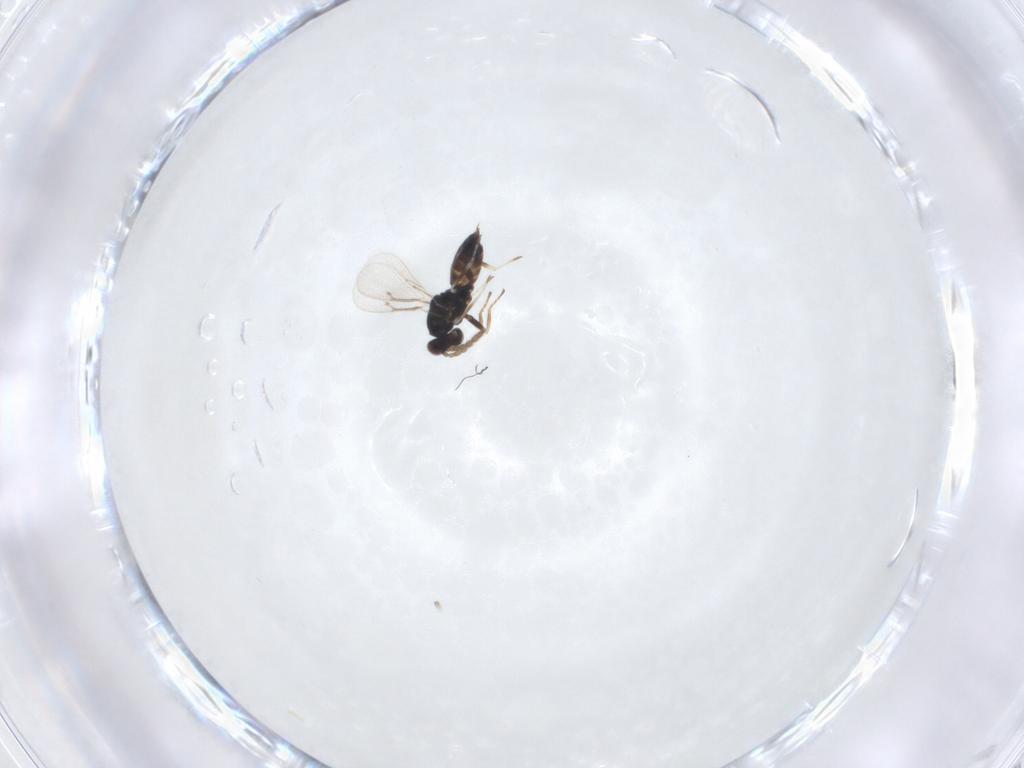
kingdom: Animalia
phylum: Arthropoda
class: Insecta
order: Hymenoptera
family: Eulophidae
